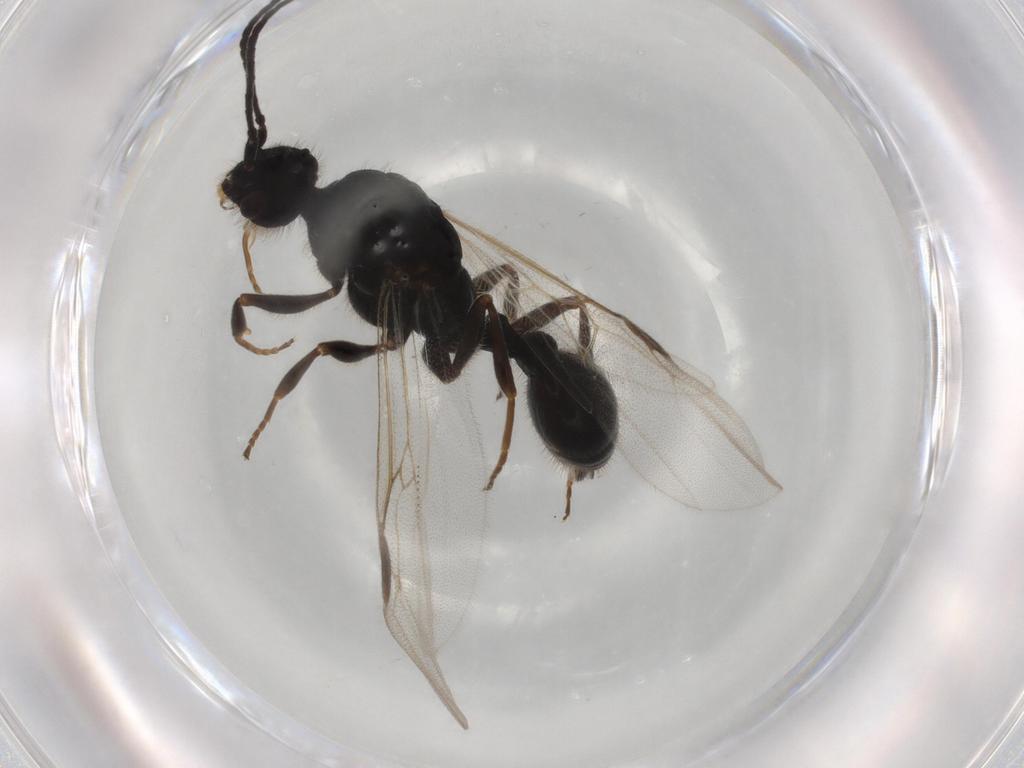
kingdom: Animalia
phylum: Arthropoda
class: Insecta
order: Hymenoptera
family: Formicidae
